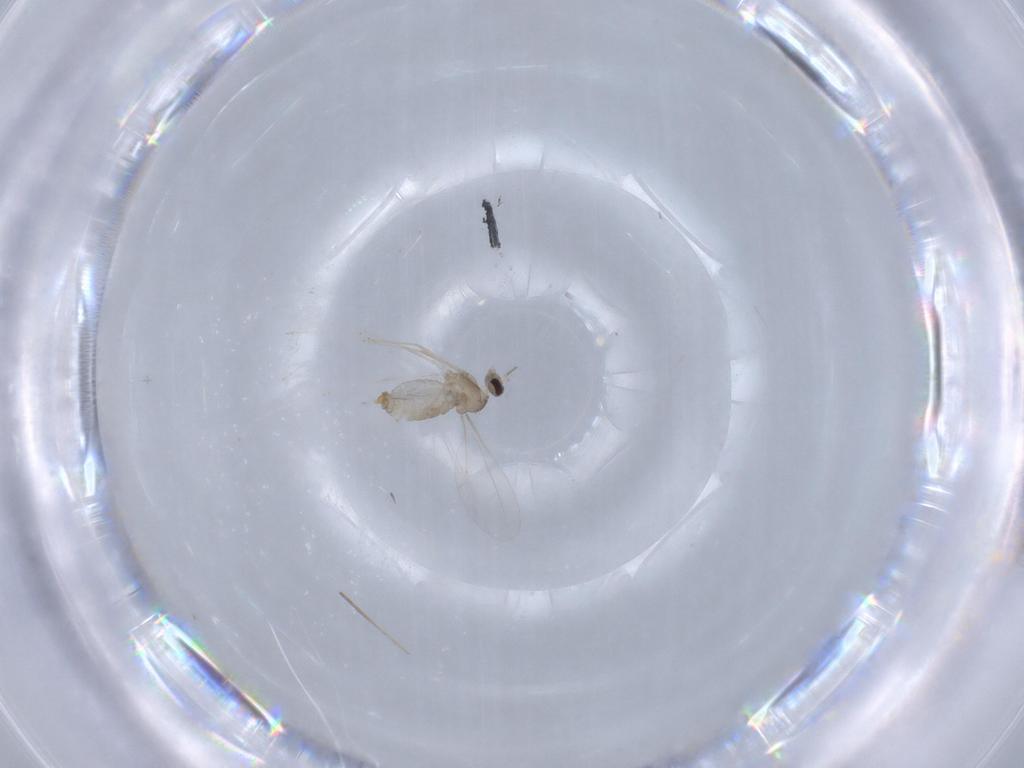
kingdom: Animalia
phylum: Arthropoda
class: Insecta
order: Diptera
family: Cecidomyiidae
